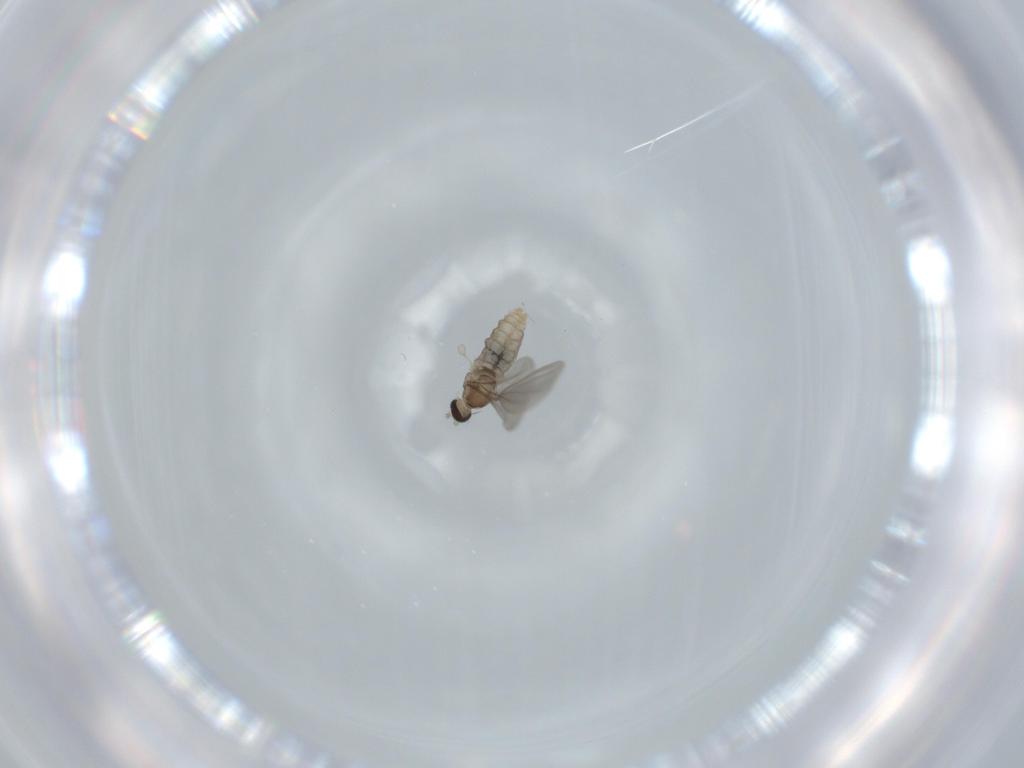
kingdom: Animalia
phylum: Arthropoda
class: Insecta
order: Diptera
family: Cecidomyiidae
